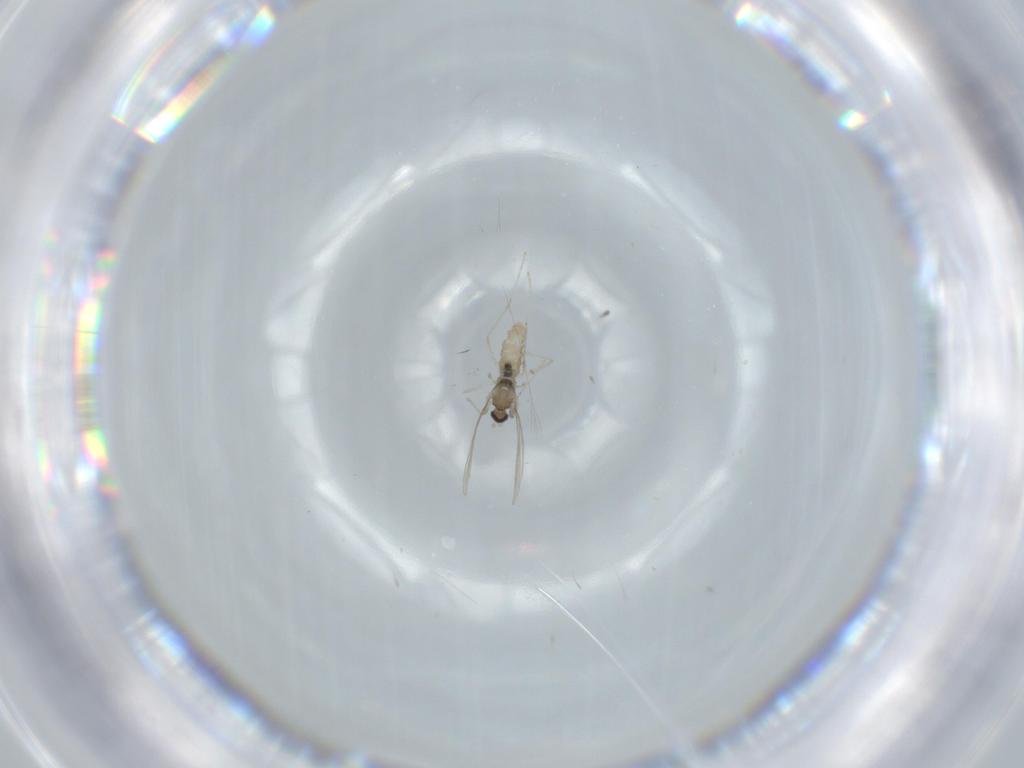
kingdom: Animalia
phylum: Arthropoda
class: Insecta
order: Diptera
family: Cecidomyiidae
